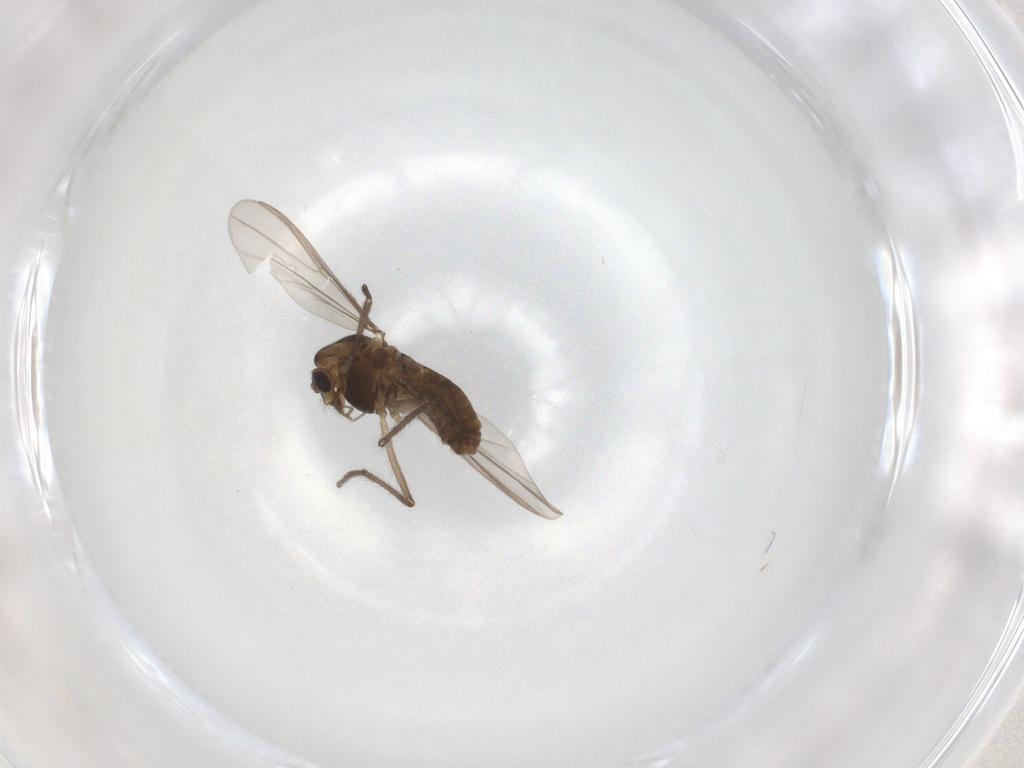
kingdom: Animalia
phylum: Arthropoda
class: Insecta
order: Diptera
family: Chironomidae
